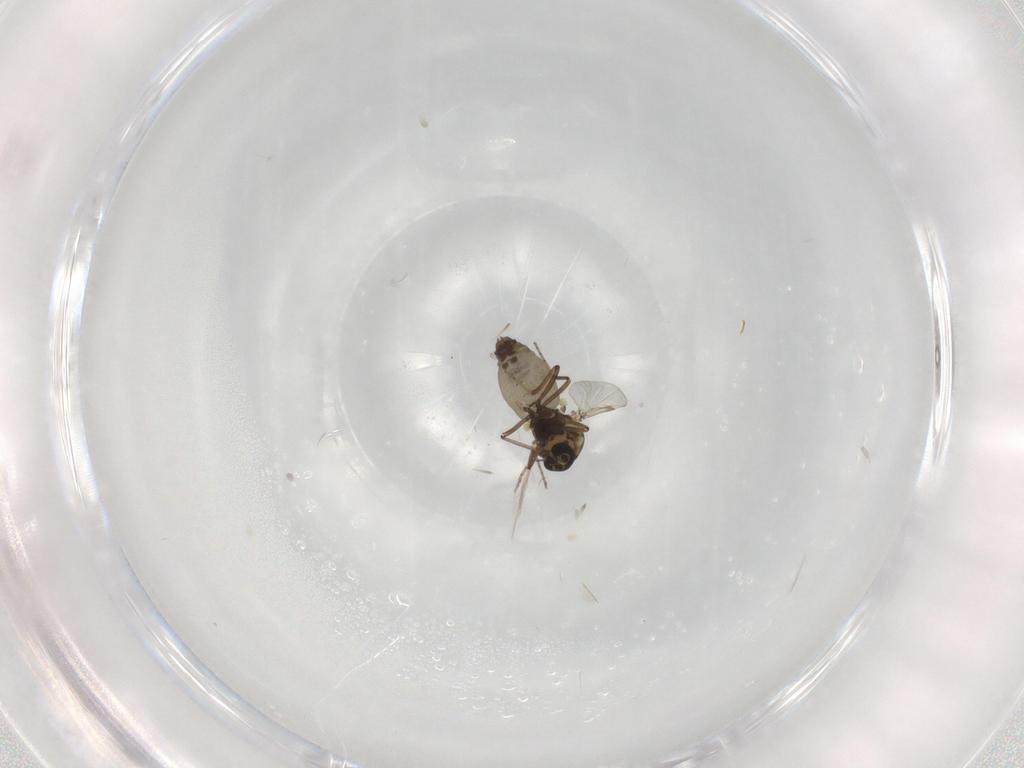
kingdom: Animalia
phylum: Arthropoda
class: Insecta
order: Diptera
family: Ceratopogonidae
